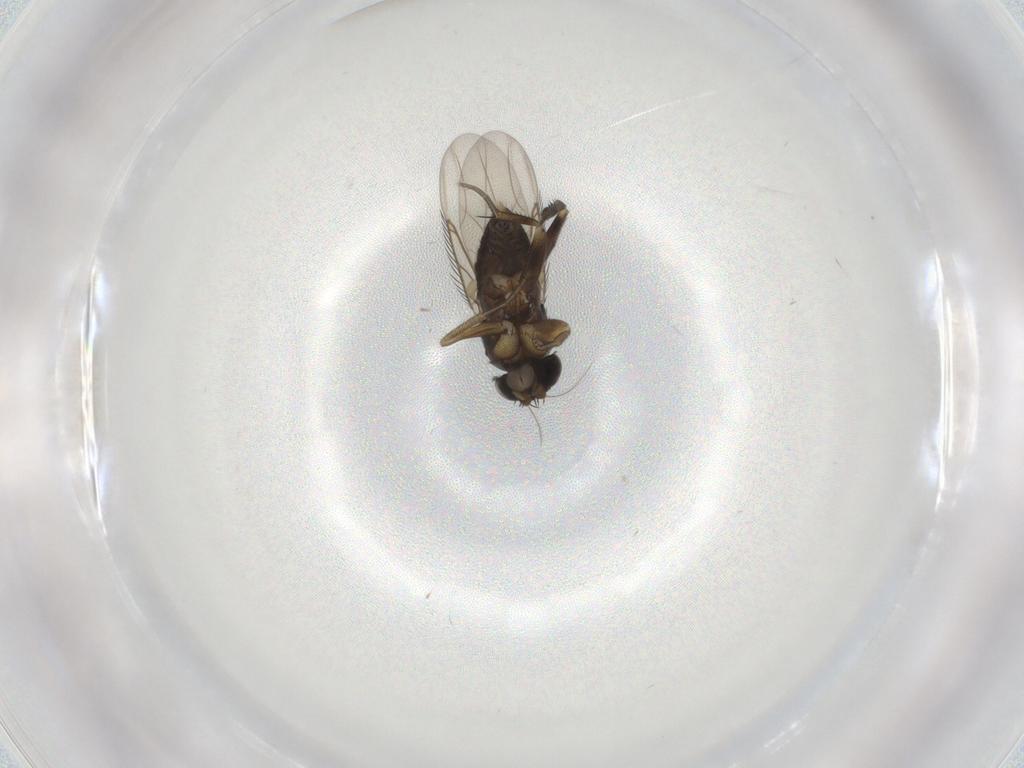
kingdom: Animalia
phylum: Arthropoda
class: Insecta
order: Diptera
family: Phoridae
